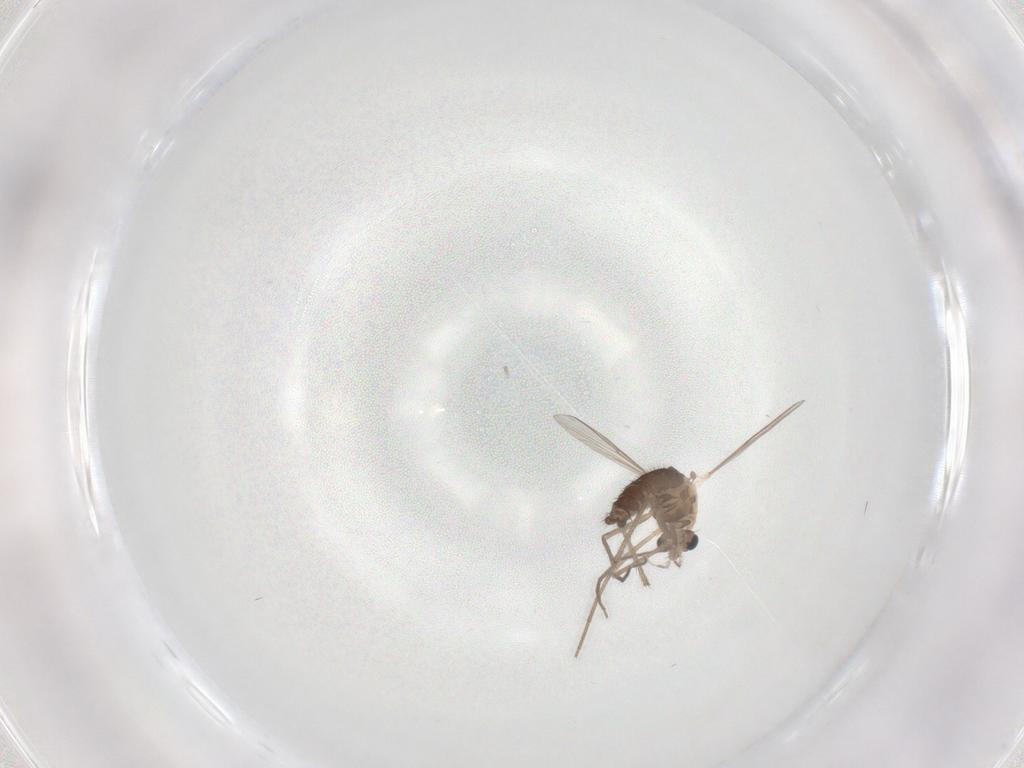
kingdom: Animalia
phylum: Arthropoda
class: Insecta
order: Diptera
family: Chironomidae
